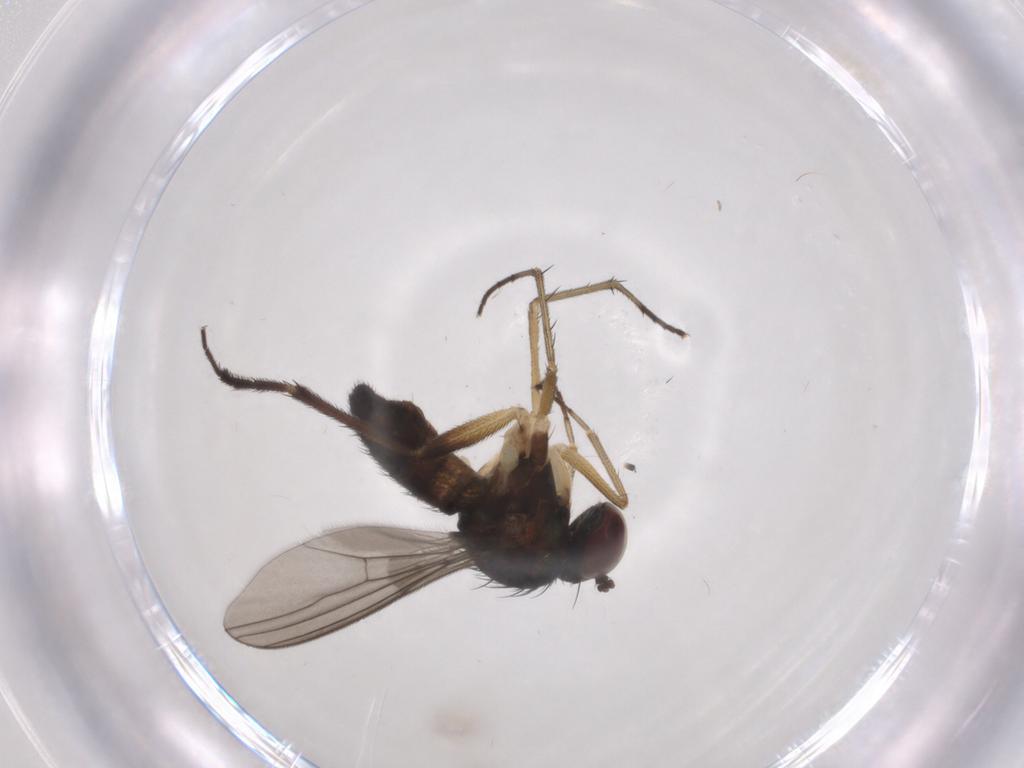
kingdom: Animalia
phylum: Arthropoda
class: Insecta
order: Diptera
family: Dolichopodidae
